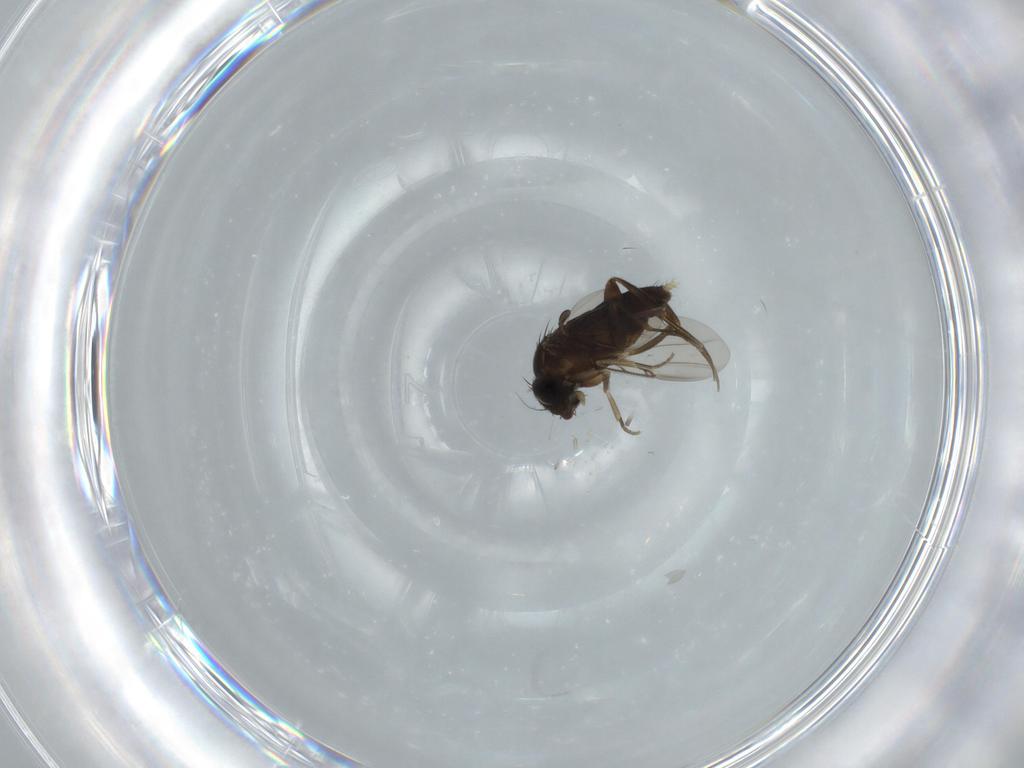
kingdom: Animalia
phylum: Arthropoda
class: Insecta
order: Diptera
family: Phoridae
